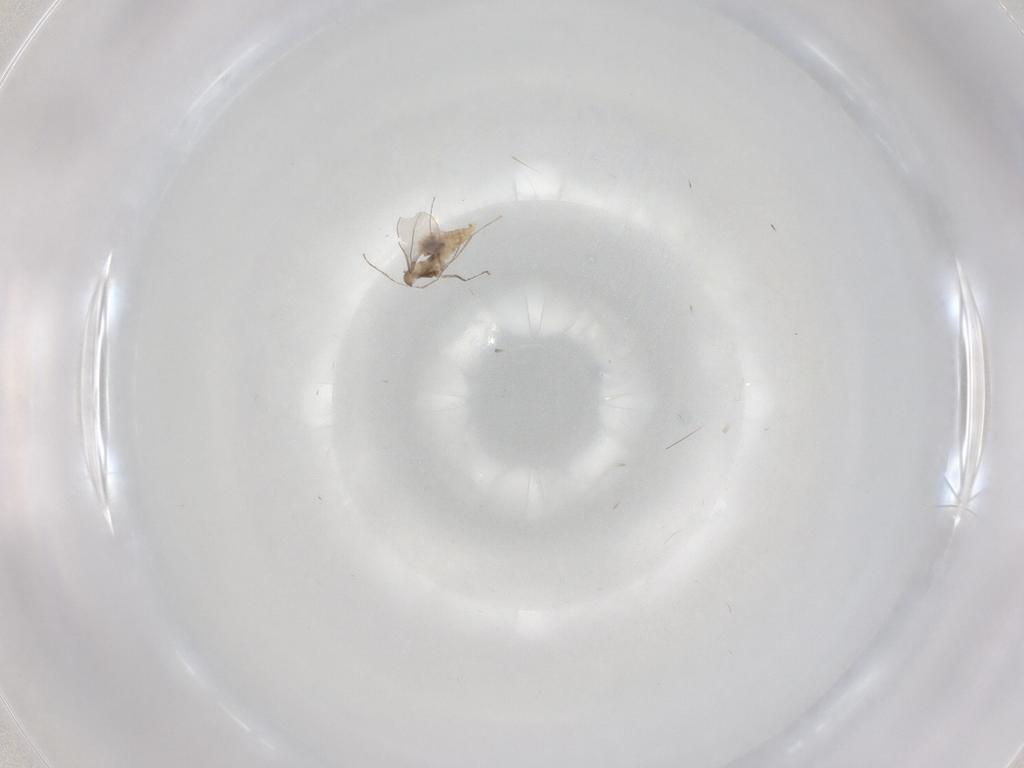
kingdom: Animalia
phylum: Arthropoda
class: Insecta
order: Diptera
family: Cecidomyiidae
